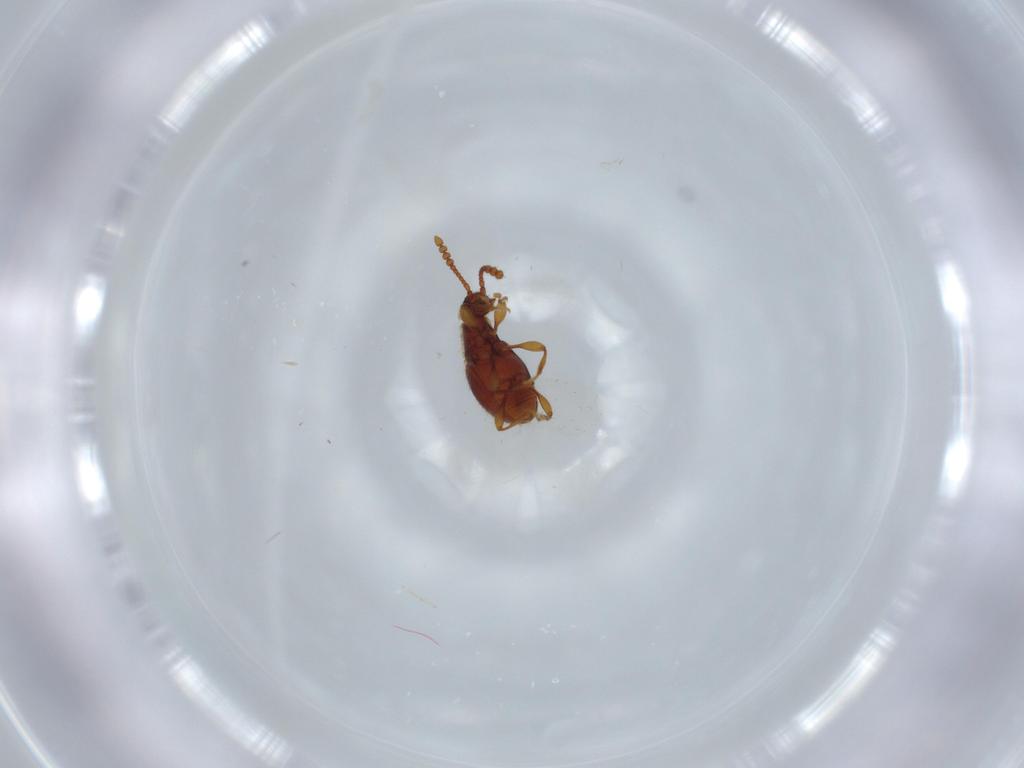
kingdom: Animalia
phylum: Arthropoda
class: Insecta
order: Coleoptera
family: Staphylinidae
